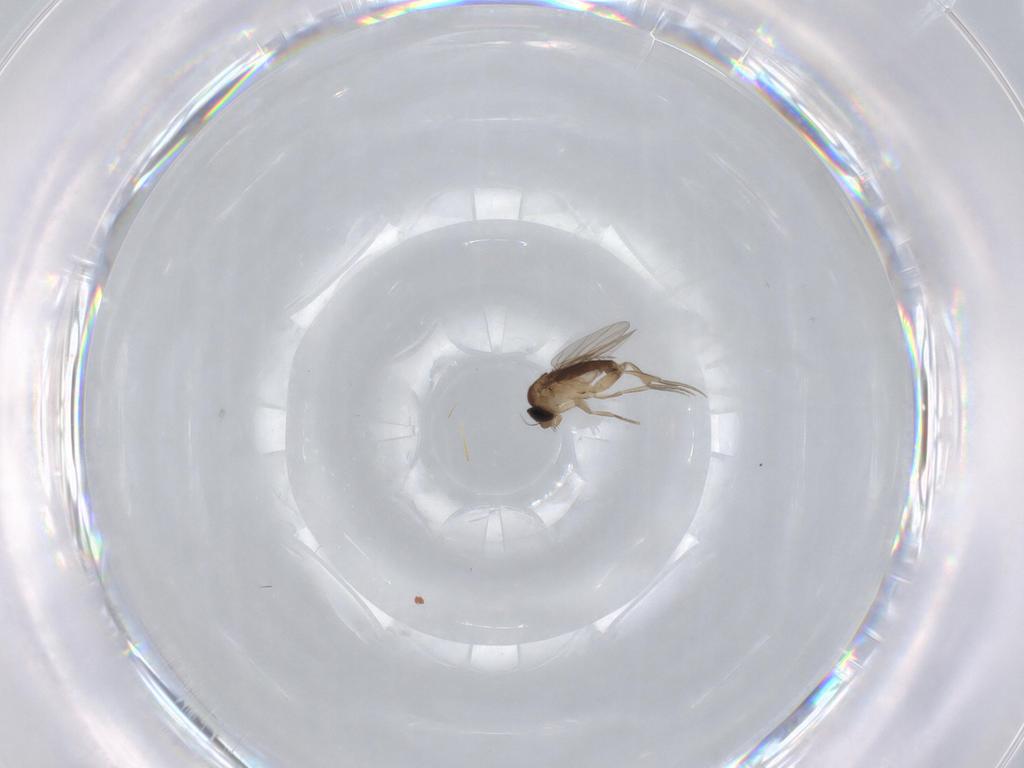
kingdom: Animalia
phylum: Arthropoda
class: Insecta
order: Diptera
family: Phoridae
